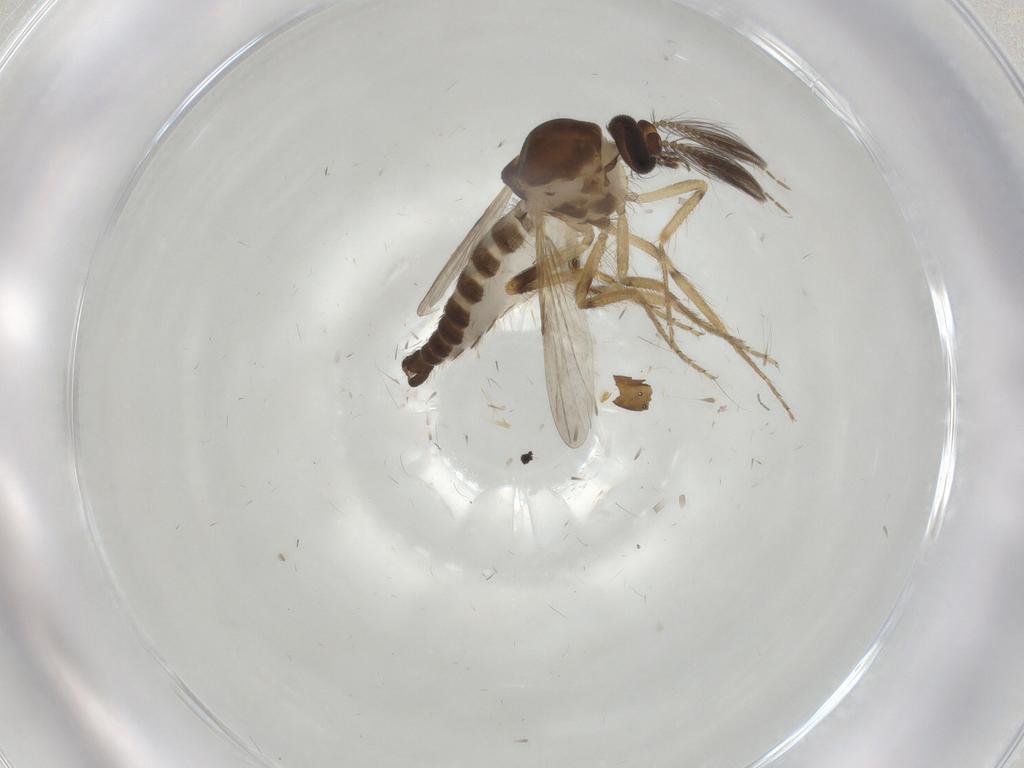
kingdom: Animalia
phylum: Arthropoda
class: Insecta
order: Diptera
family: Ceratopogonidae
